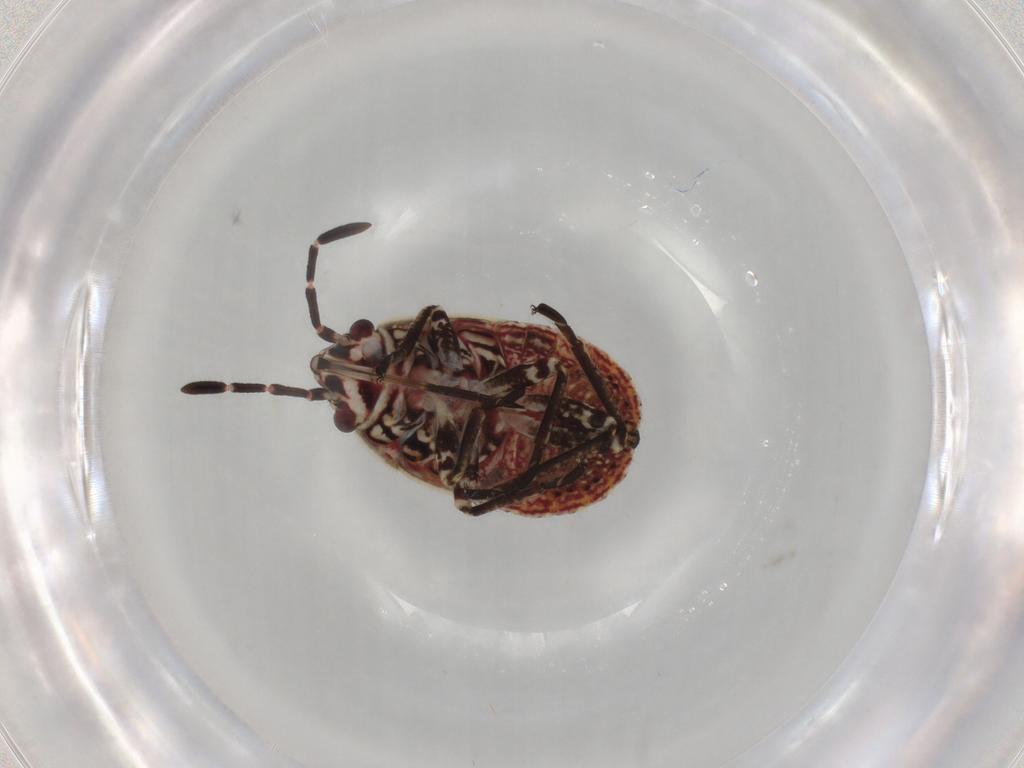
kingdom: Animalia
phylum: Arthropoda
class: Insecta
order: Hemiptera
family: Lygaeidae
